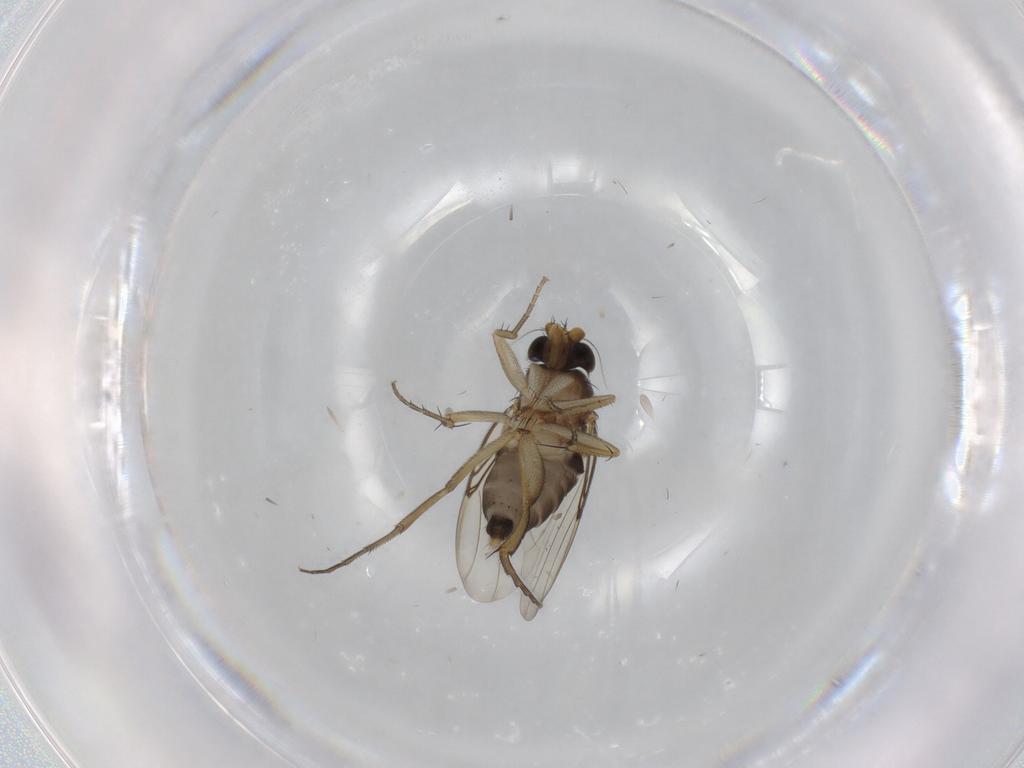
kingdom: Animalia
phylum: Arthropoda
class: Insecta
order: Diptera
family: Phoridae
